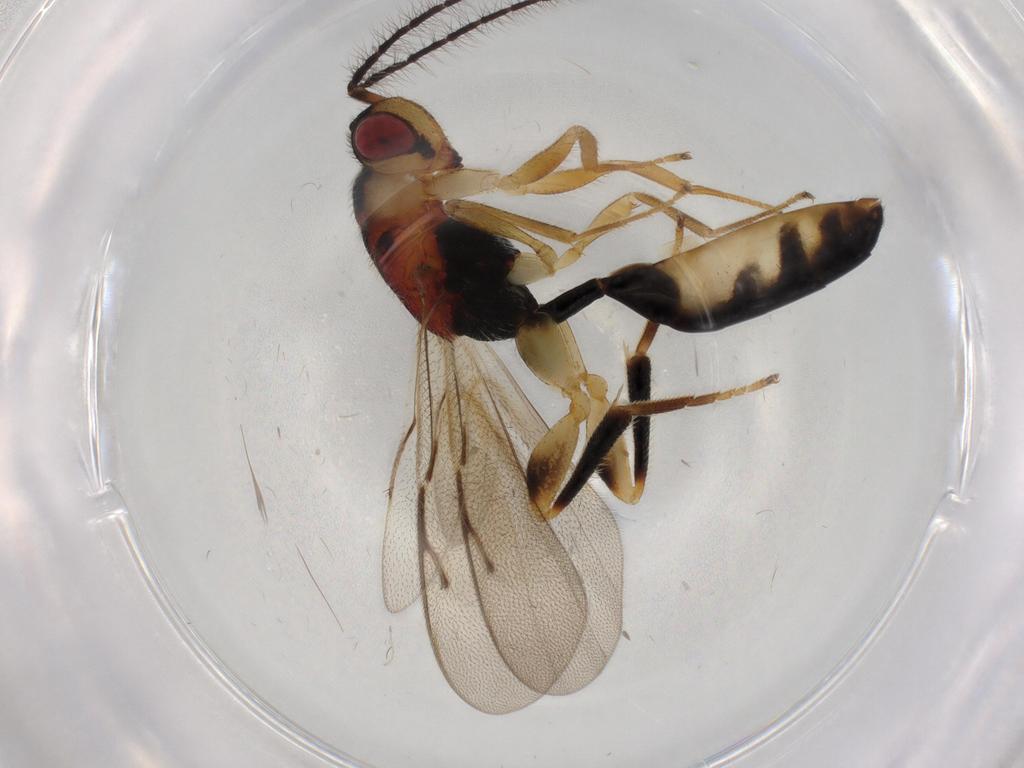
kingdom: Animalia
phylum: Arthropoda
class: Insecta
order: Hymenoptera
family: Eurytomidae
